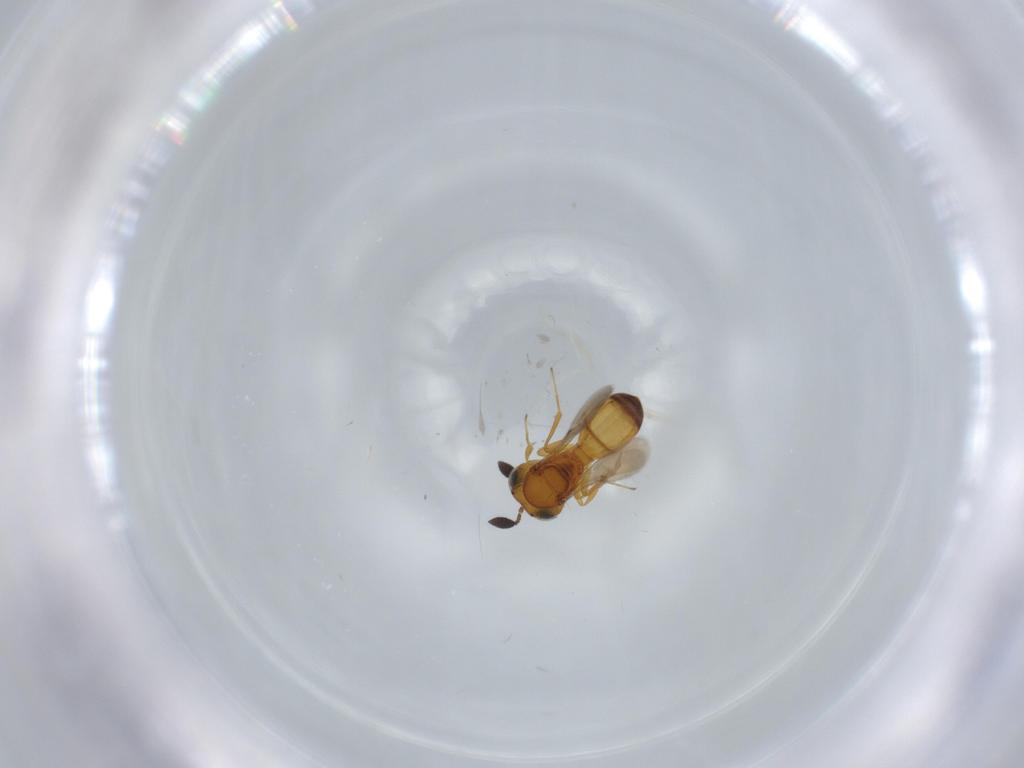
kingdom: Animalia
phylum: Arthropoda
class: Insecta
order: Hymenoptera
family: Scelionidae
